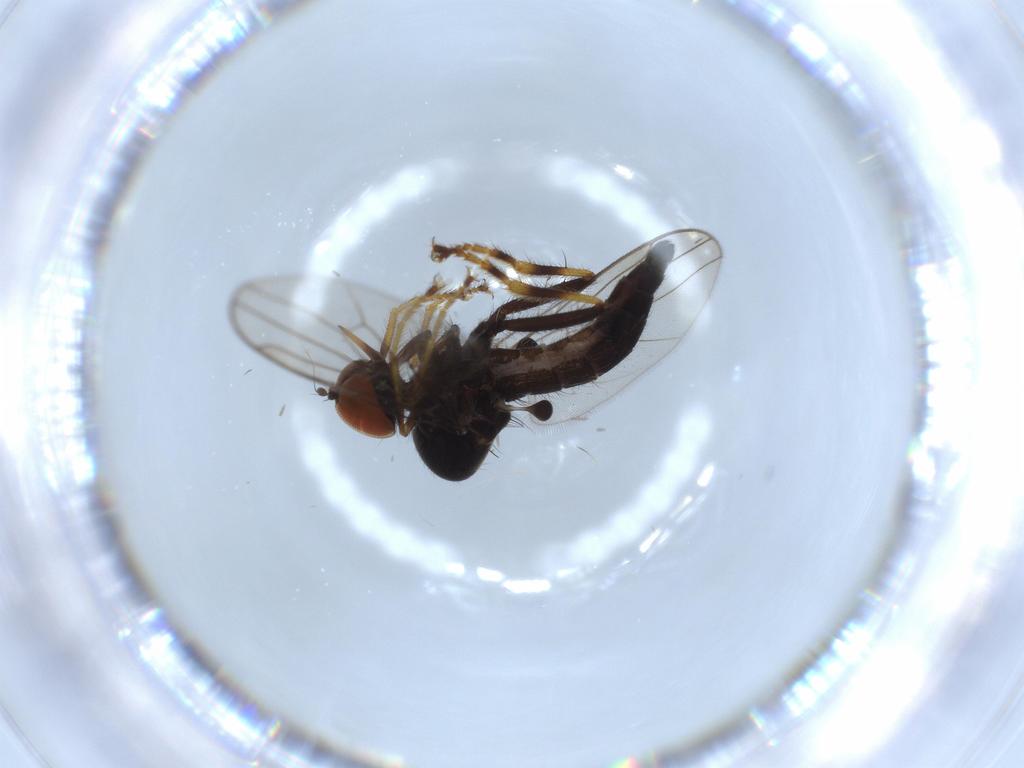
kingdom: Animalia
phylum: Arthropoda
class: Insecta
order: Diptera
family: Hybotidae
